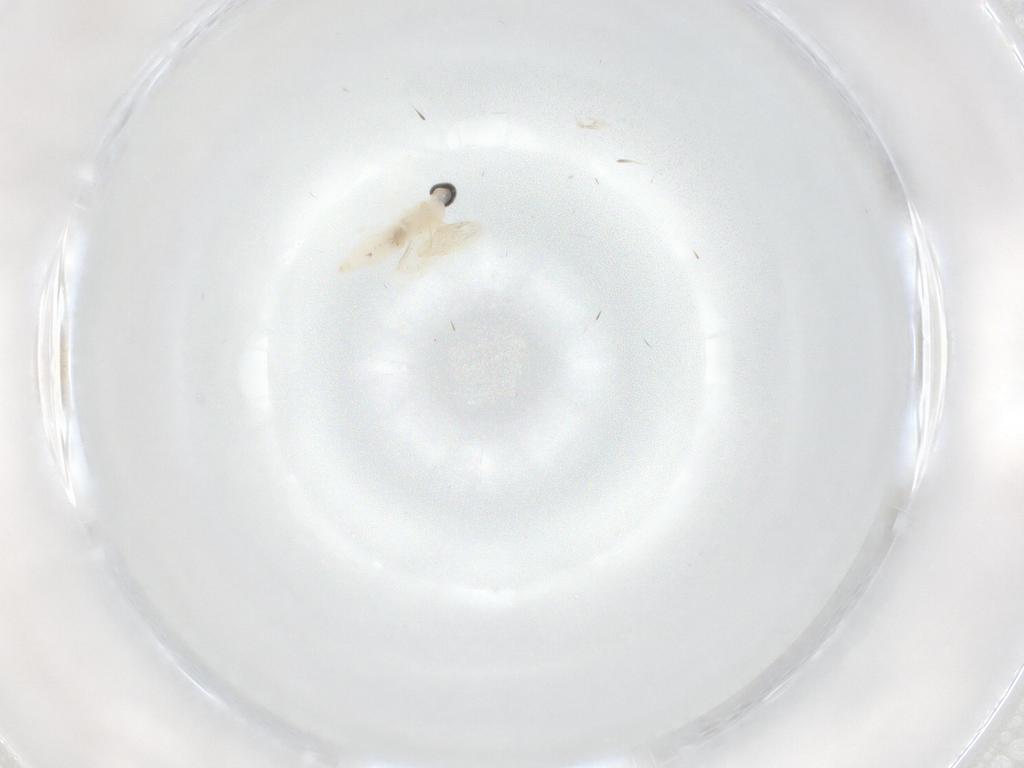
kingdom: Animalia
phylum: Arthropoda
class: Insecta
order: Diptera
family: Cecidomyiidae
